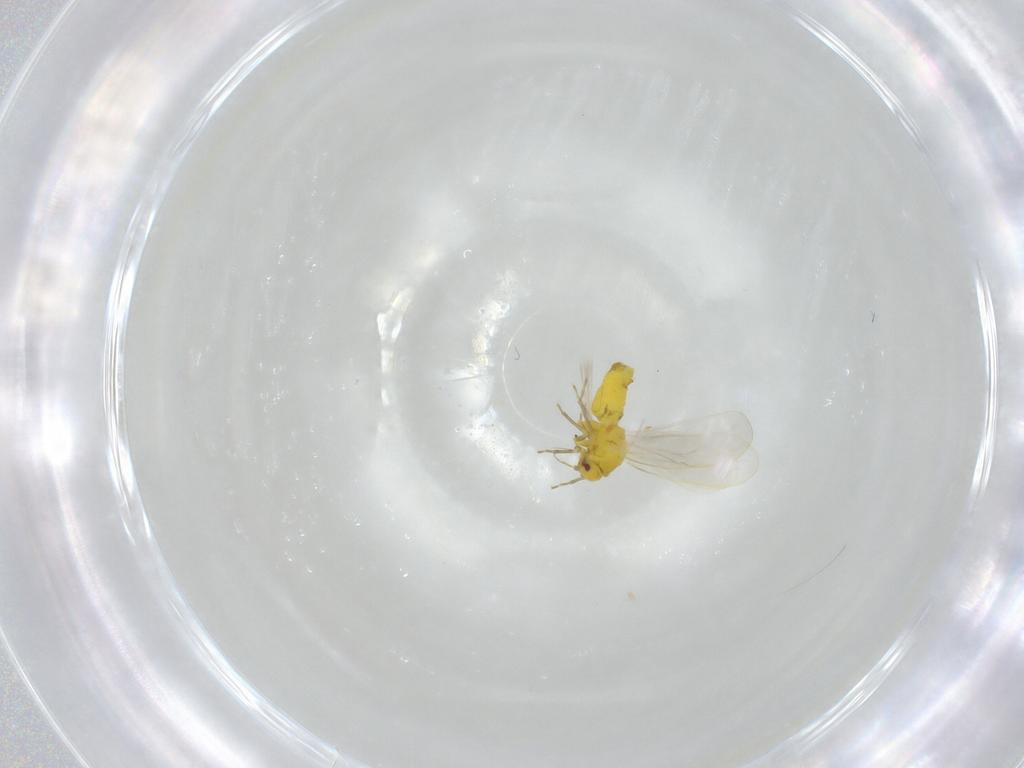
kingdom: Animalia
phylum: Arthropoda
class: Insecta
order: Hemiptera
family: Aleyrodidae
